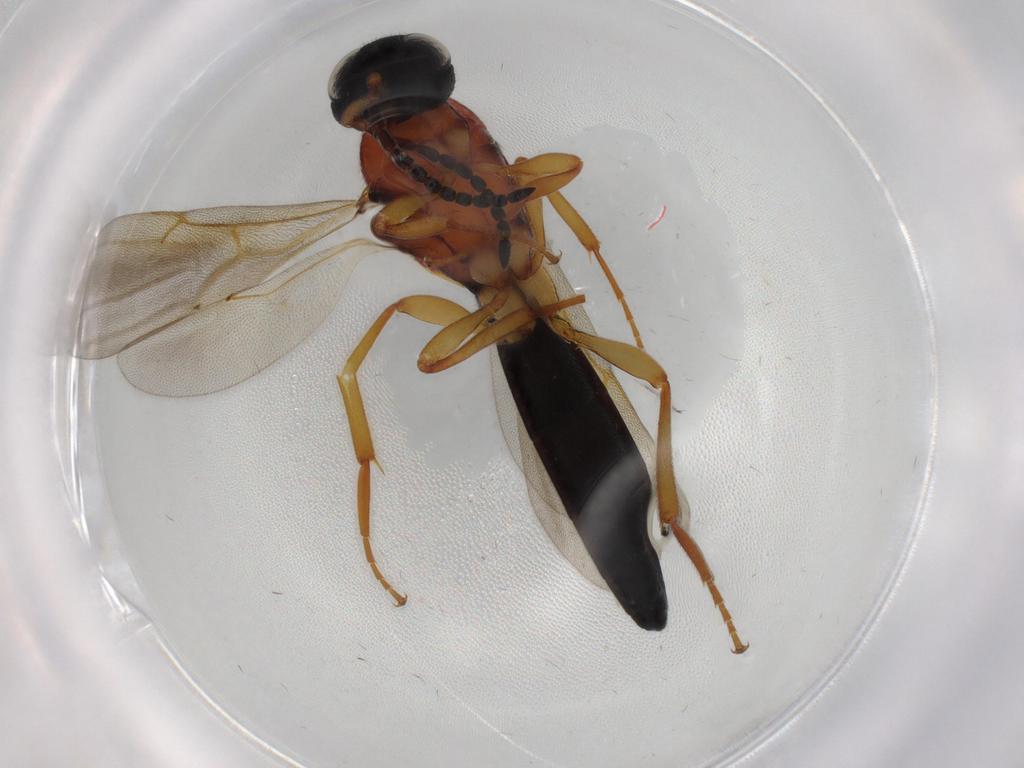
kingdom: Animalia
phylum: Arthropoda
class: Insecta
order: Hymenoptera
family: Scelionidae
